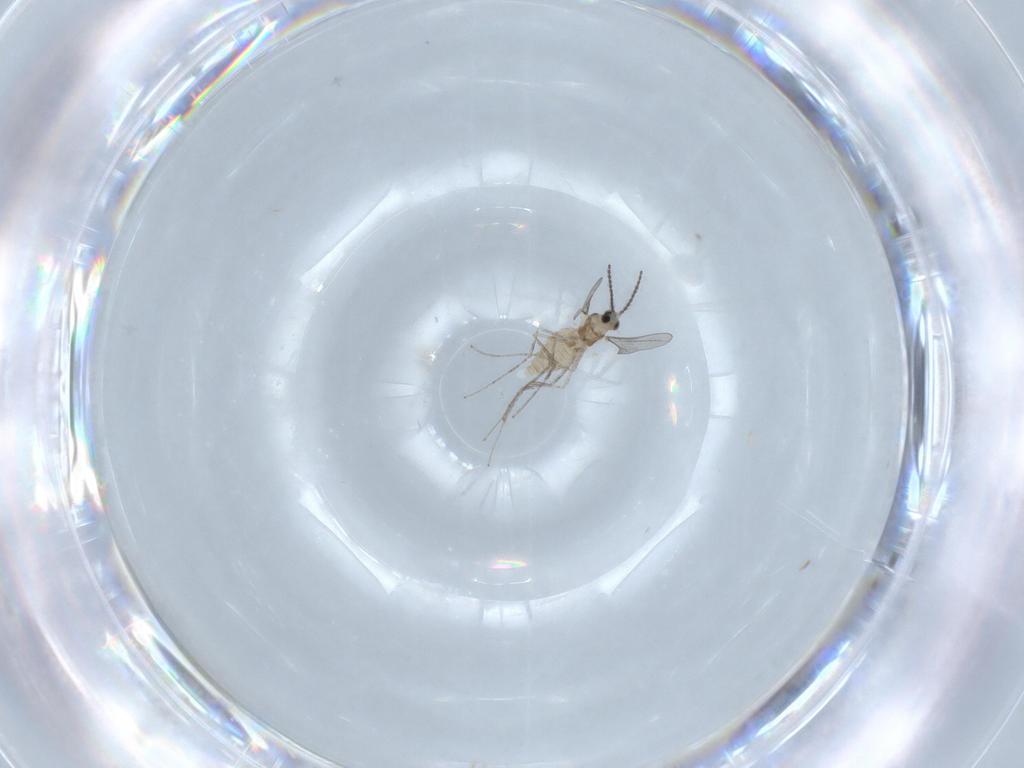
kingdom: Animalia
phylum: Arthropoda
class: Insecta
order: Diptera
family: Cecidomyiidae
